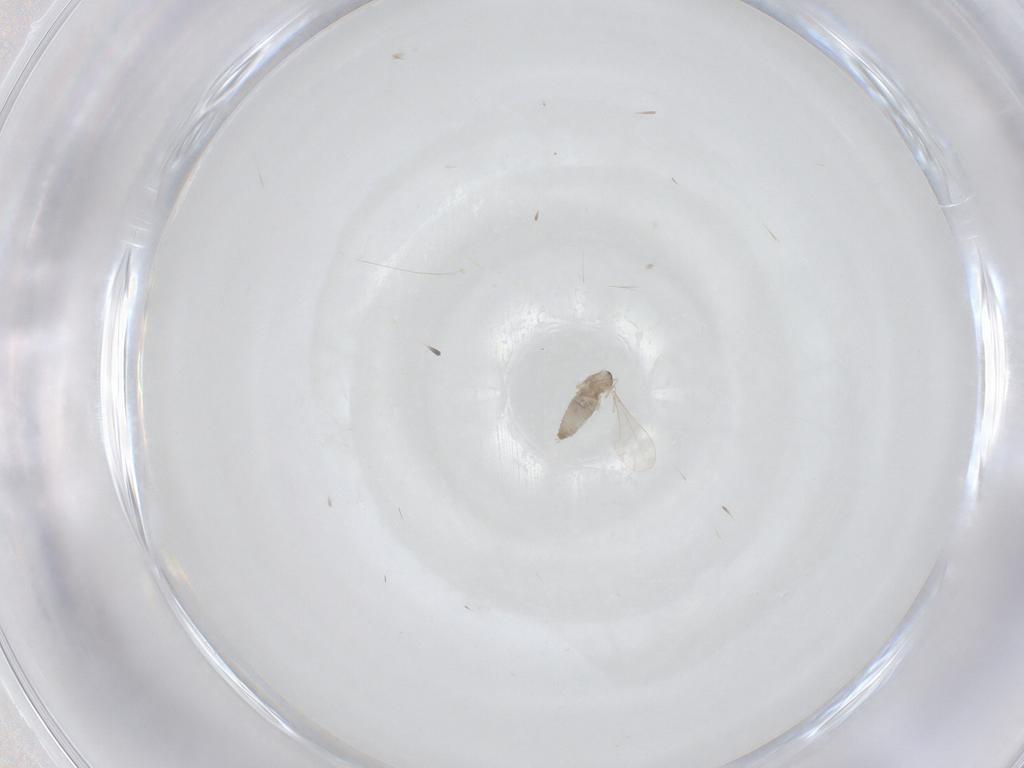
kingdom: Animalia
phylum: Arthropoda
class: Insecta
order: Diptera
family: Cecidomyiidae
